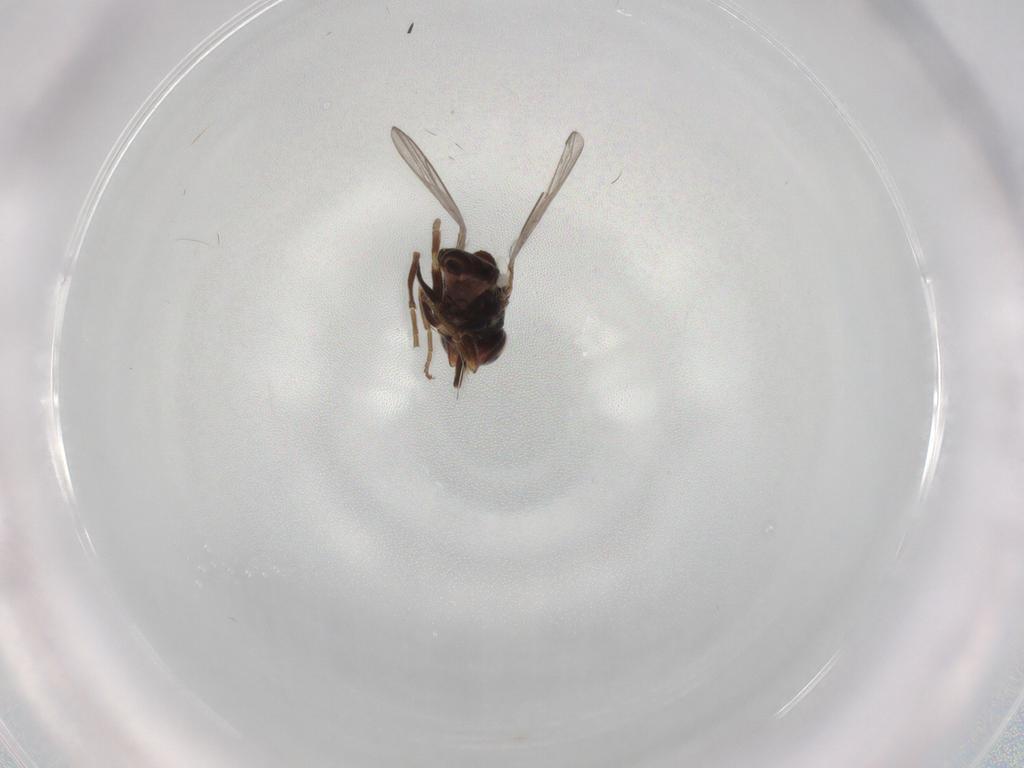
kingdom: Animalia
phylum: Arthropoda
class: Insecta
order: Diptera
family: Chloropidae
